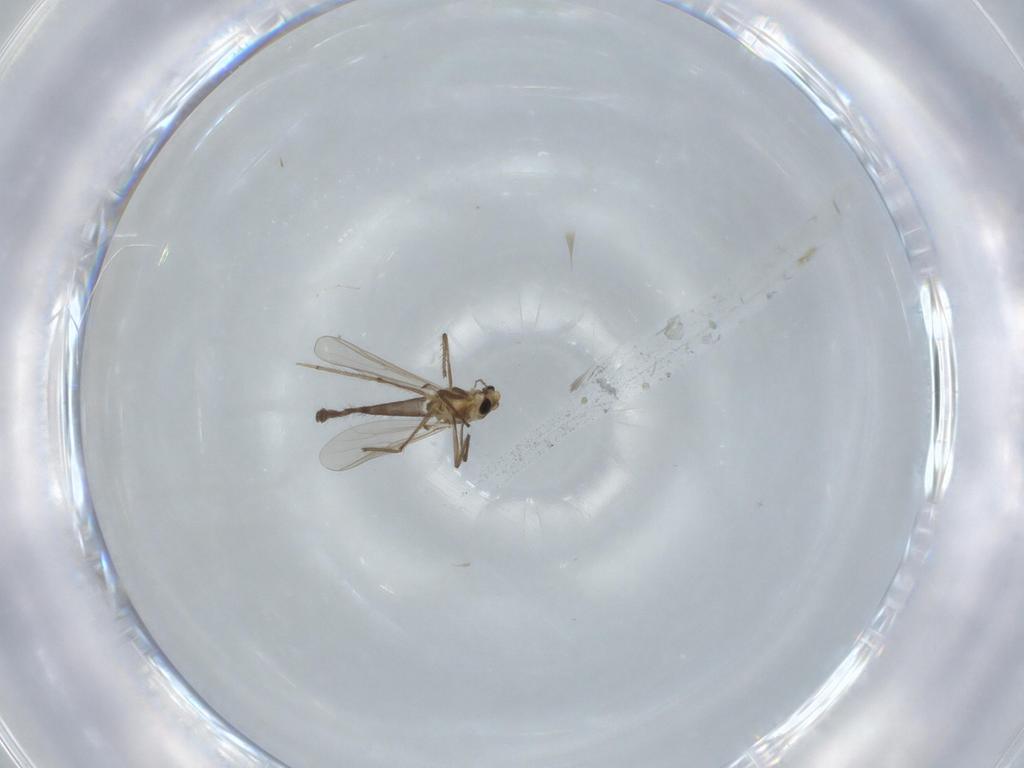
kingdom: Animalia
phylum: Arthropoda
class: Insecta
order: Diptera
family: Chironomidae
